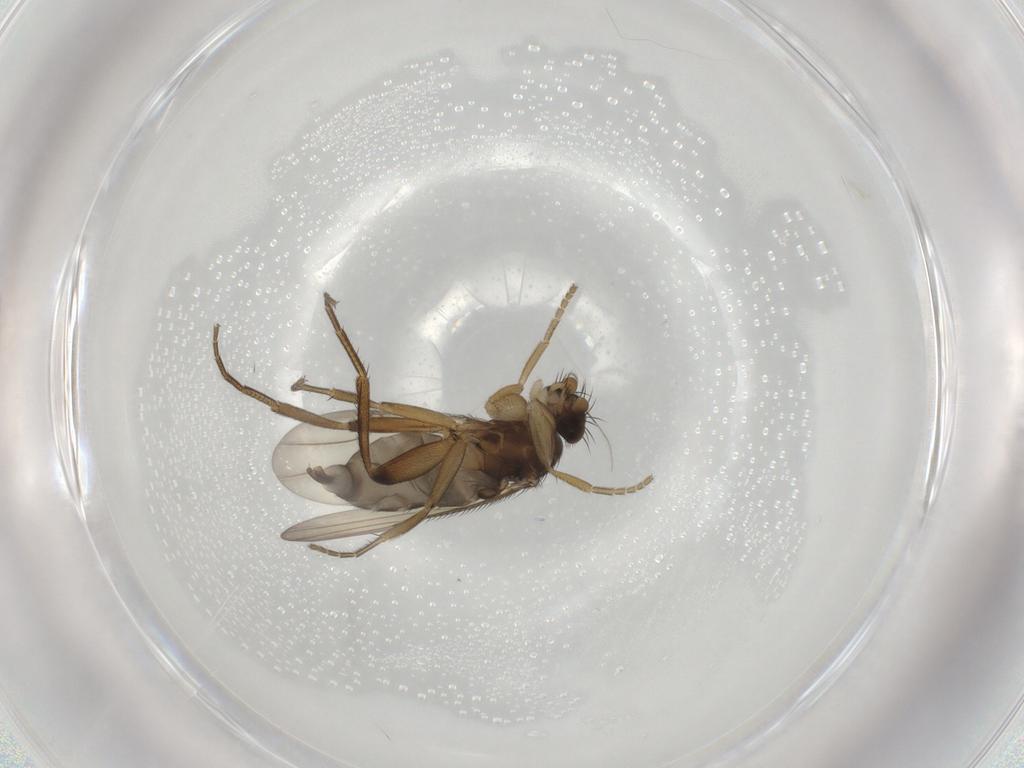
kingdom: Animalia
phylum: Arthropoda
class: Insecta
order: Diptera
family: Phoridae
